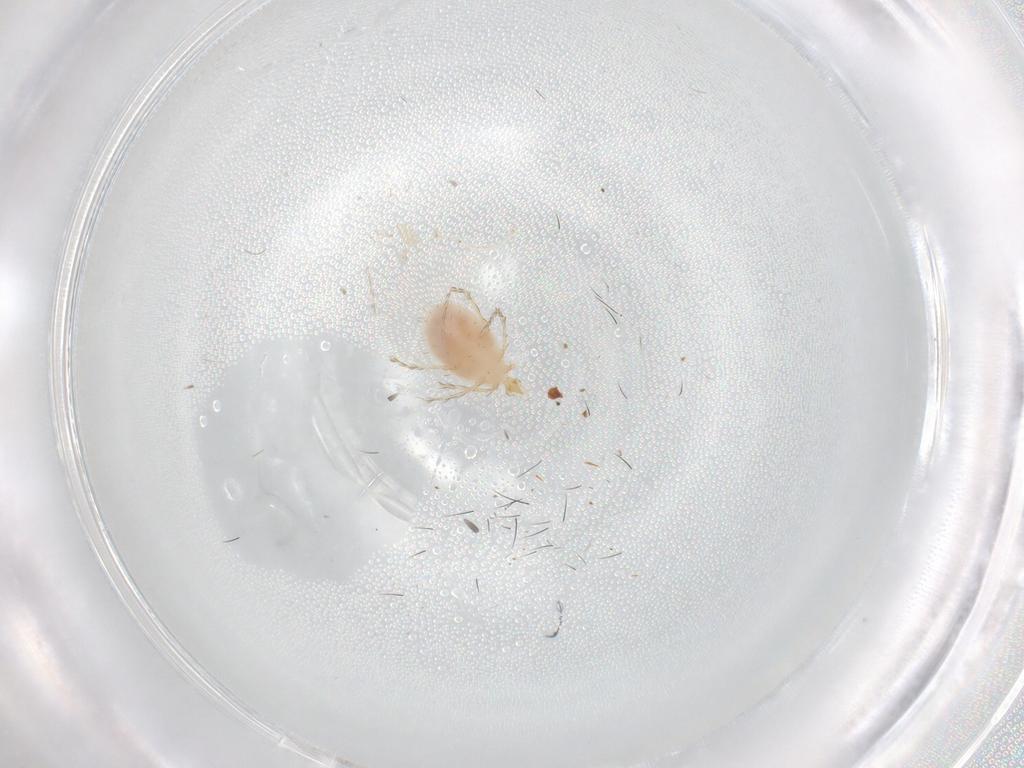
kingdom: Animalia
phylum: Arthropoda
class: Arachnida
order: Trombidiformes
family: Erythraeidae
